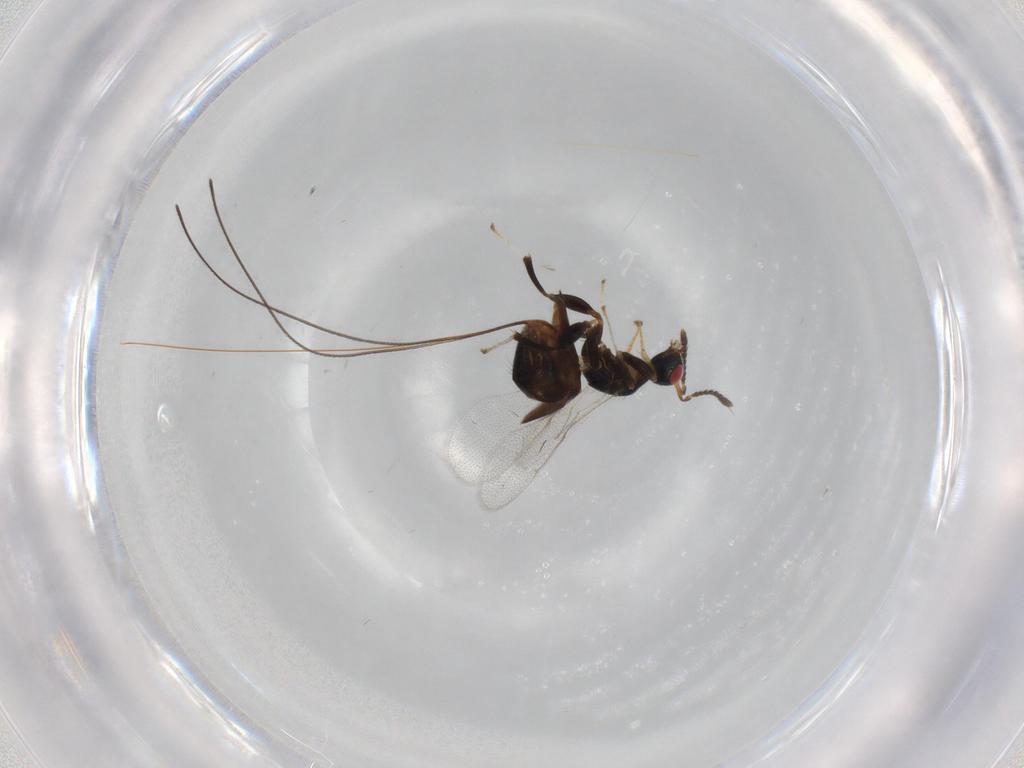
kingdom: Animalia
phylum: Arthropoda
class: Insecta
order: Hymenoptera
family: Torymidae
